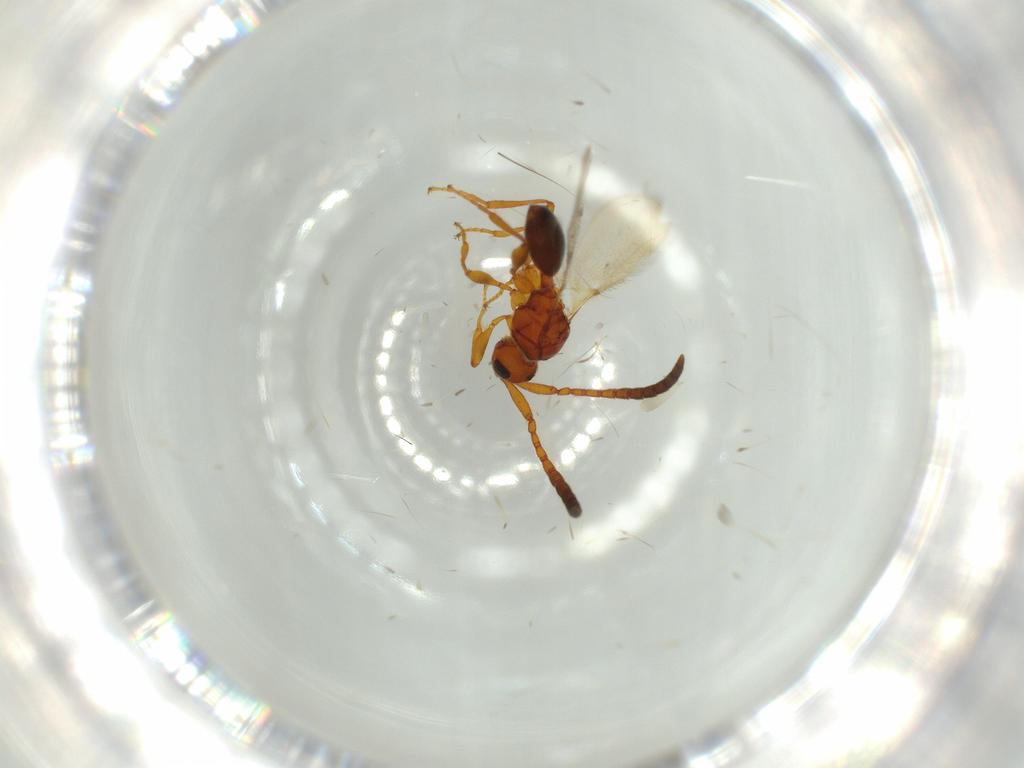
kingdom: Animalia
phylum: Arthropoda
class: Insecta
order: Hymenoptera
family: Diapriidae
